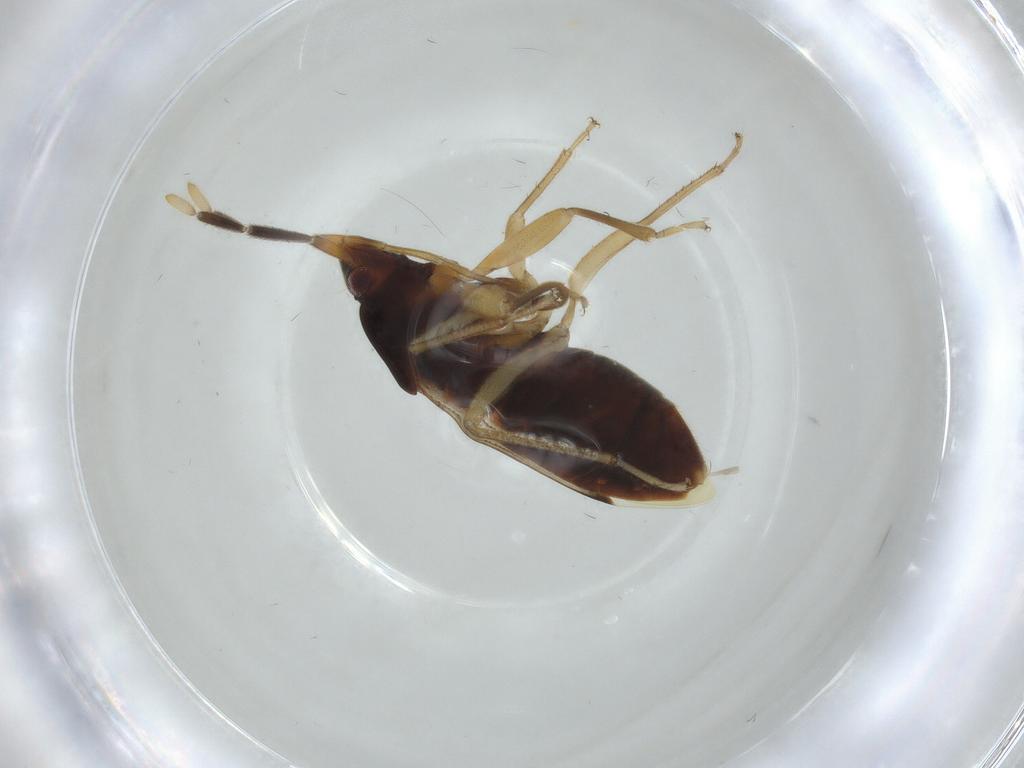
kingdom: Animalia
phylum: Arthropoda
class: Insecta
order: Hemiptera
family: Rhyparochromidae
